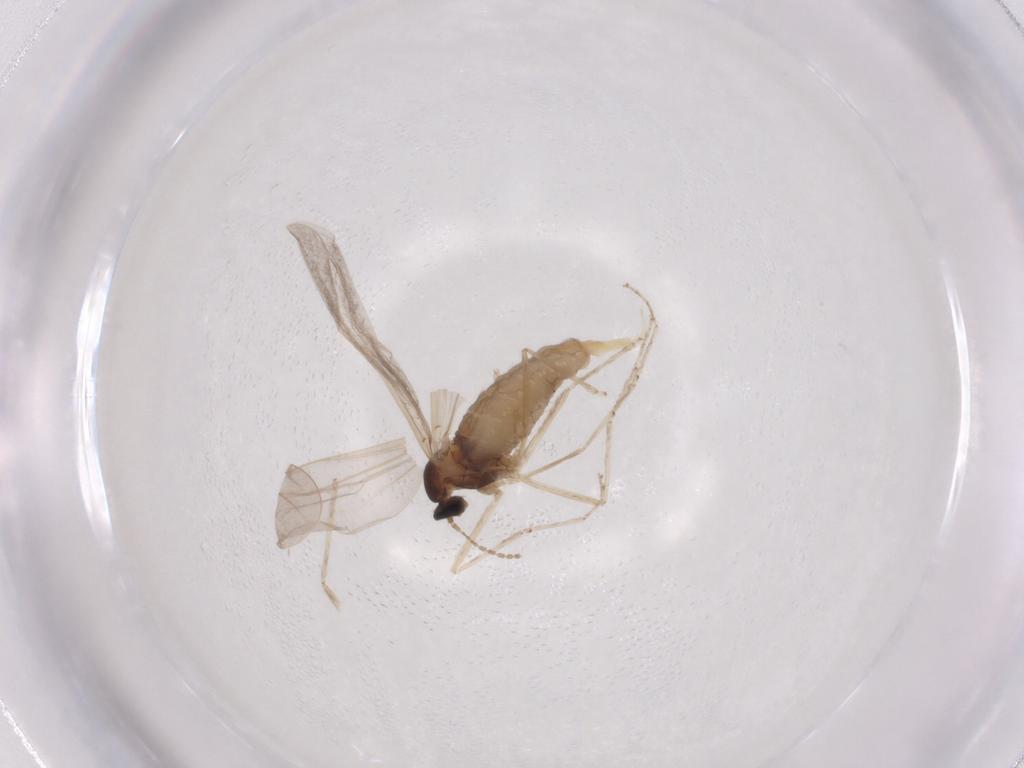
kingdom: Animalia
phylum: Arthropoda
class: Insecta
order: Diptera
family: Cecidomyiidae
